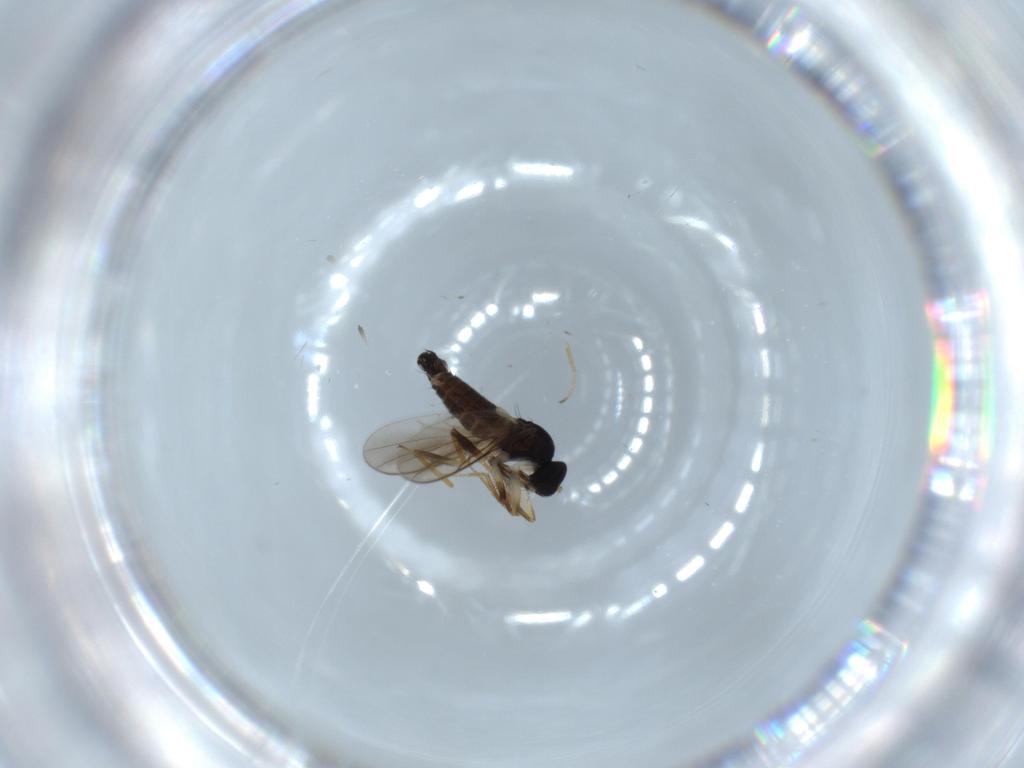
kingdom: Animalia
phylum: Arthropoda
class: Insecta
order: Diptera
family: Hybotidae
